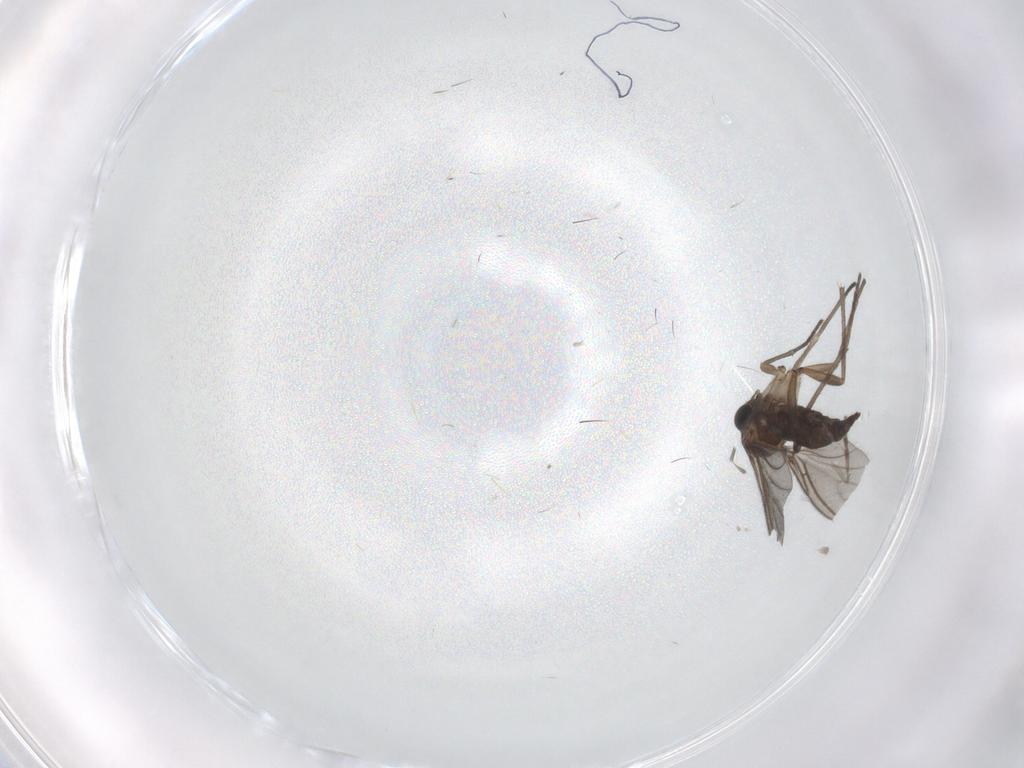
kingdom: Animalia
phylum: Arthropoda
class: Insecta
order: Diptera
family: Sciaridae
